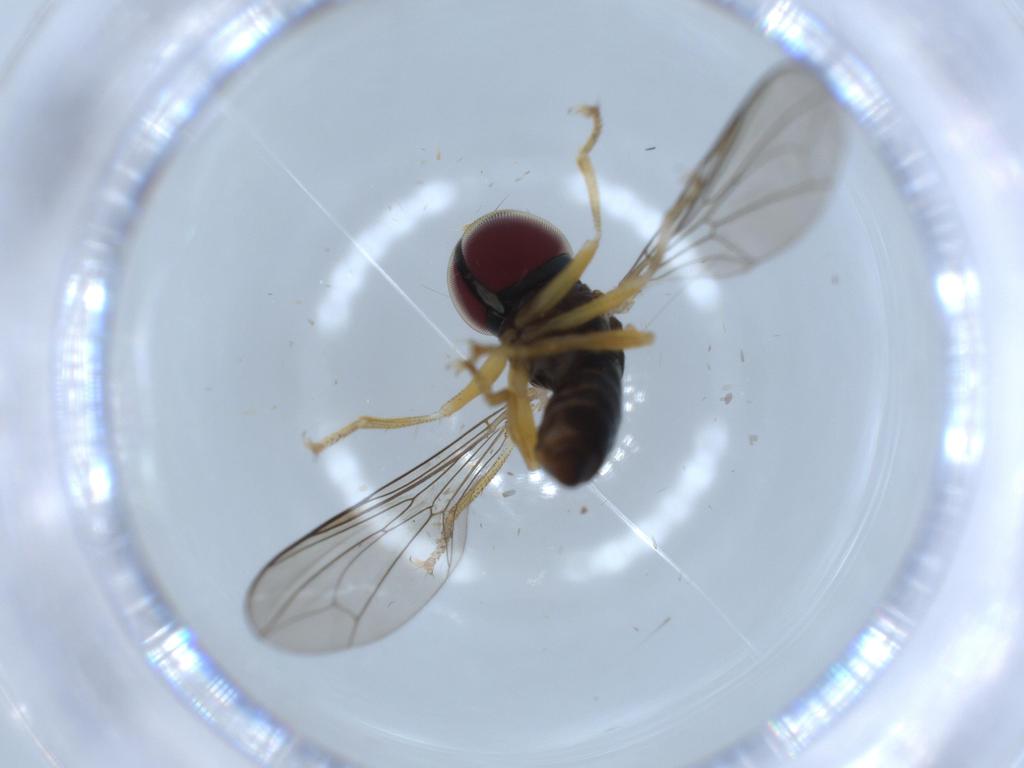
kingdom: Animalia
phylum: Arthropoda
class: Insecta
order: Diptera
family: Pipunculidae
